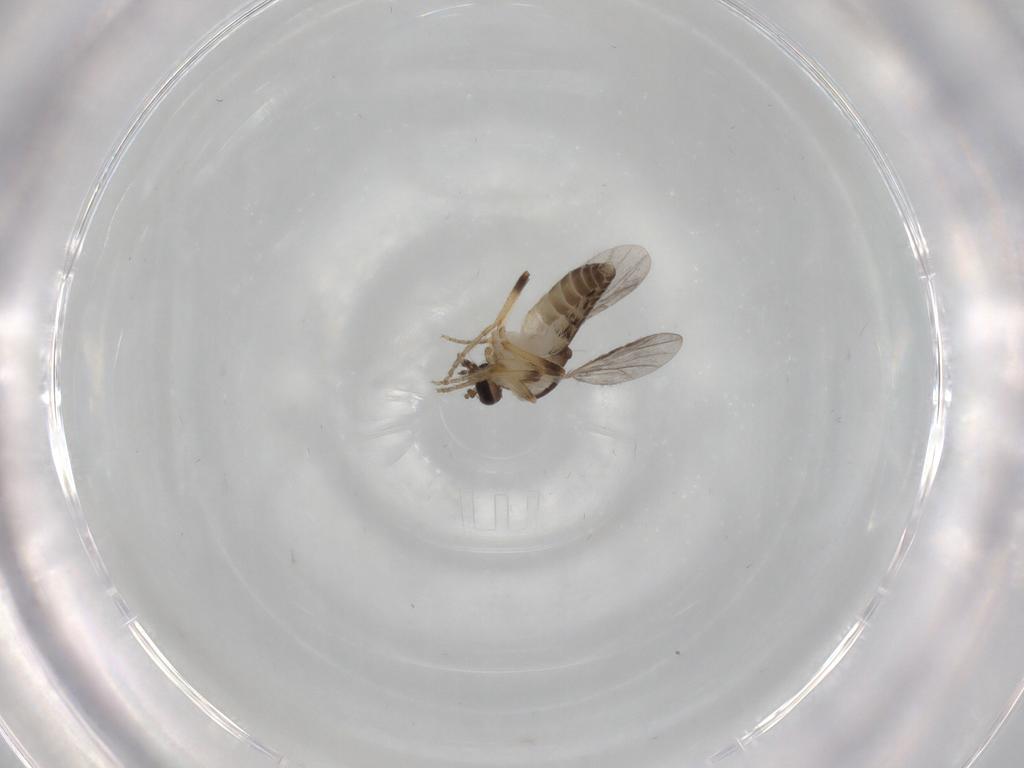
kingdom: Animalia
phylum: Arthropoda
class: Insecta
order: Diptera
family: Ceratopogonidae
